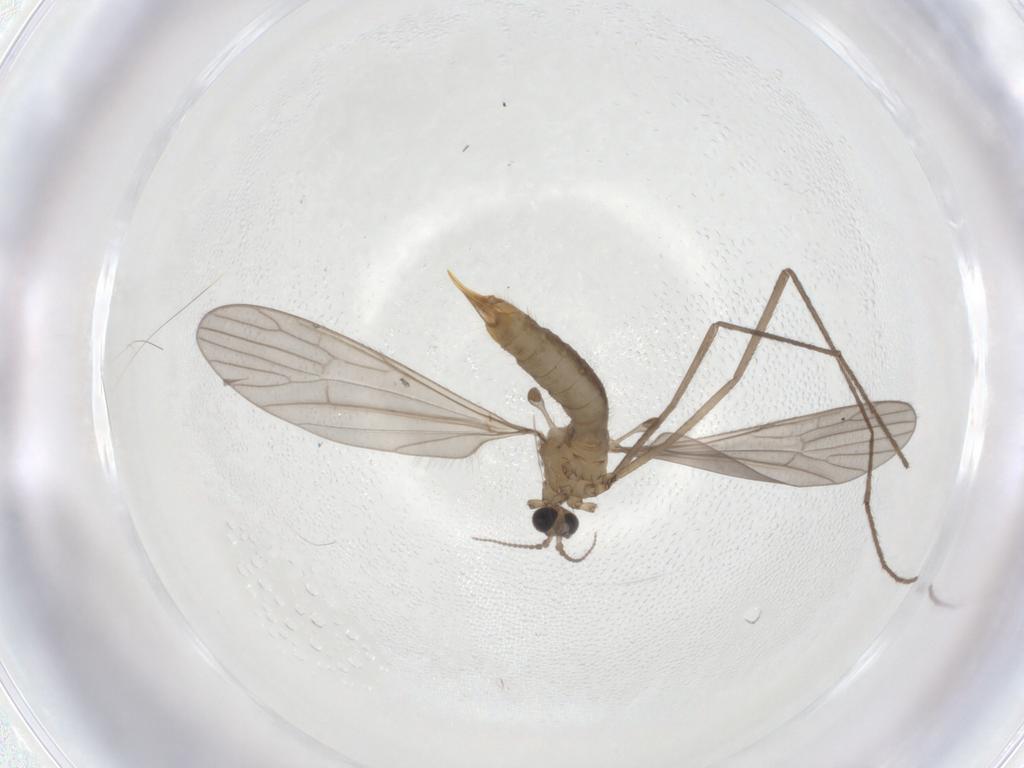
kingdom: Animalia
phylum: Arthropoda
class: Insecta
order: Diptera
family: Limoniidae
